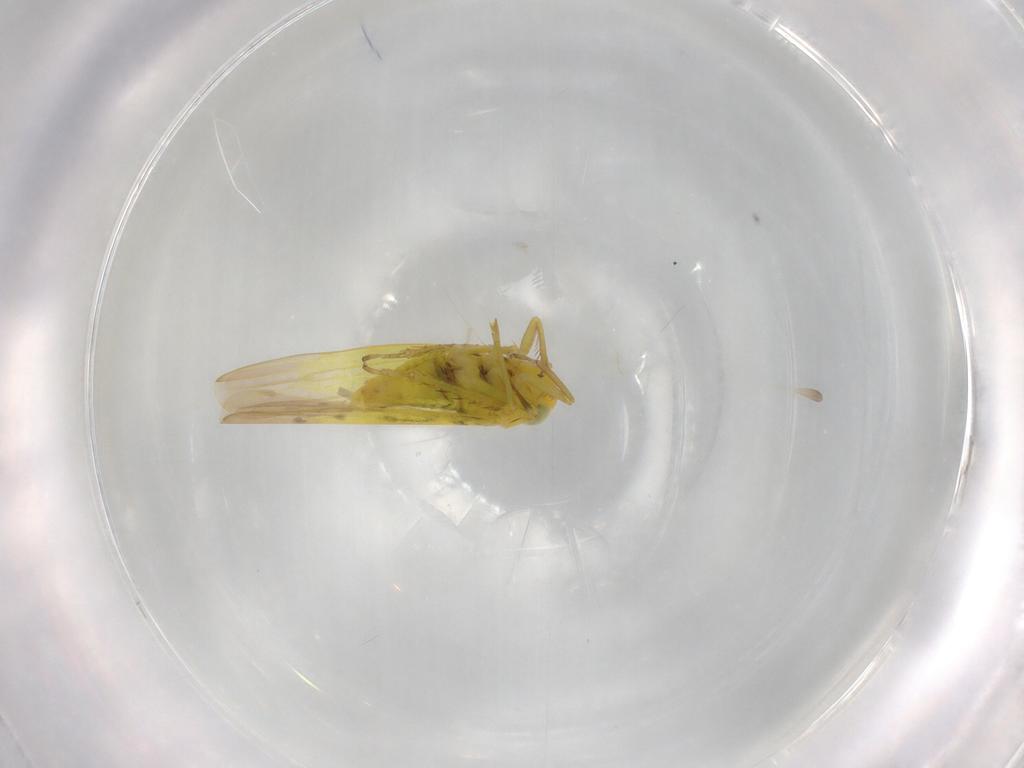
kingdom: Animalia
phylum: Arthropoda
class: Insecta
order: Hemiptera
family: Cicadellidae
